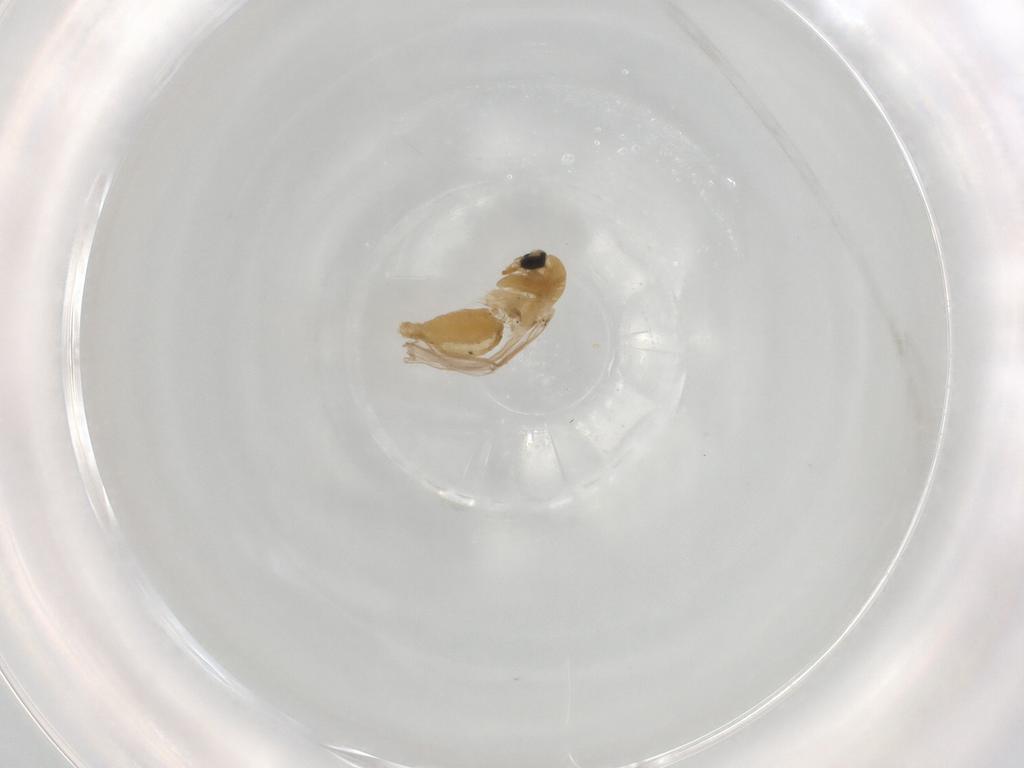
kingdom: Animalia
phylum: Arthropoda
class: Insecta
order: Diptera
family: Chironomidae
